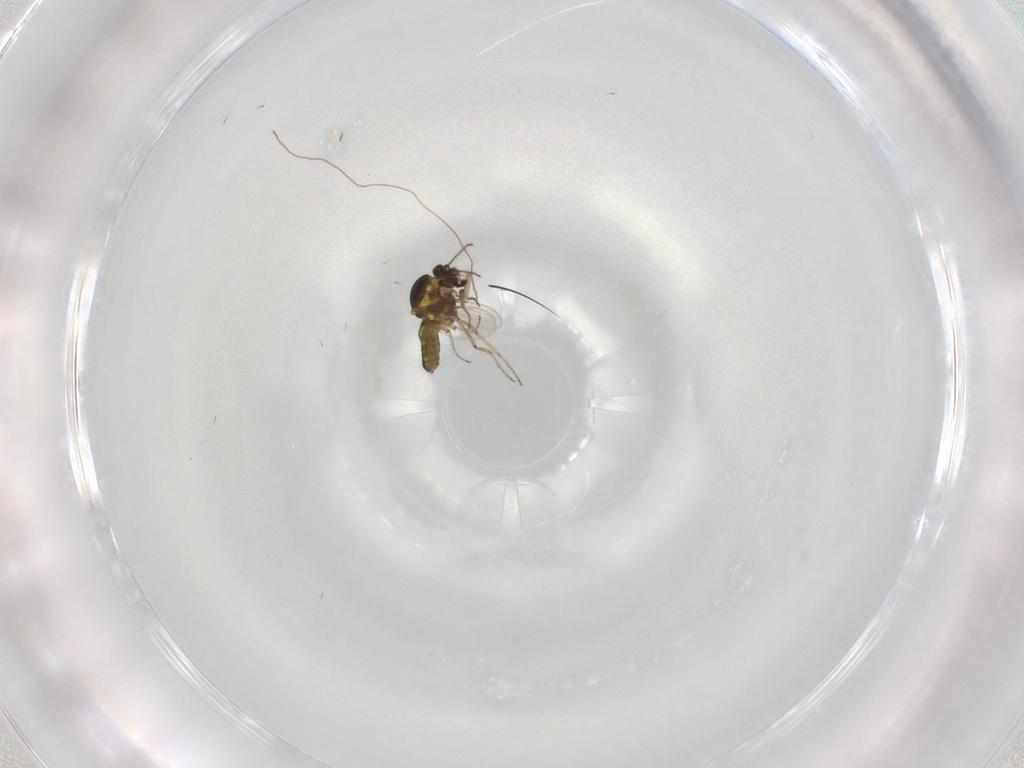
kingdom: Animalia
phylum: Arthropoda
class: Insecta
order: Diptera
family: Ceratopogonidae
